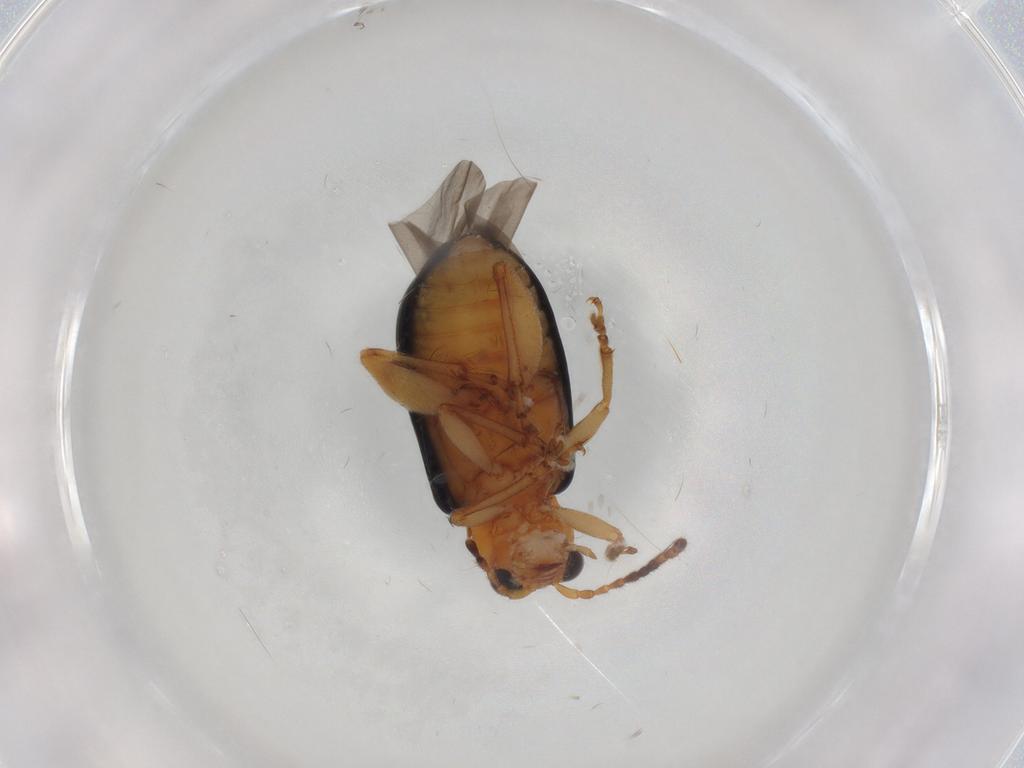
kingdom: Animalia
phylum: Arthropoda
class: Insecta
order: Coleoptera
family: Chrysomelidae
